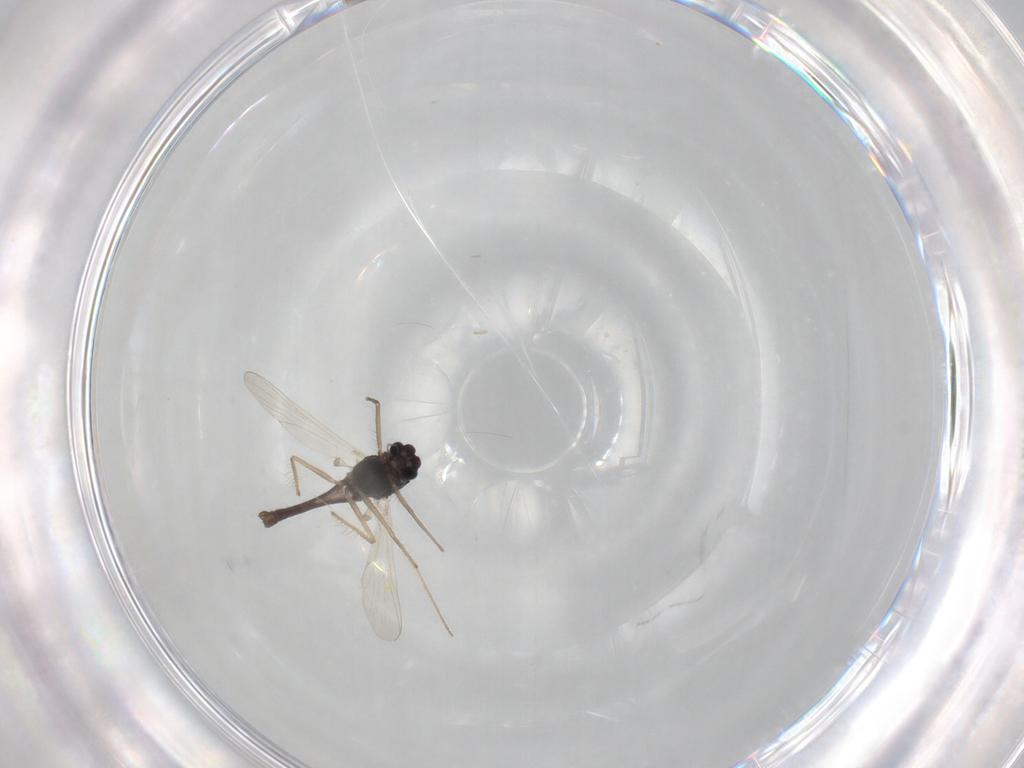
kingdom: Animalia
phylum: Arthropoda
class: Insecta
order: Diptera
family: Chironomidae
